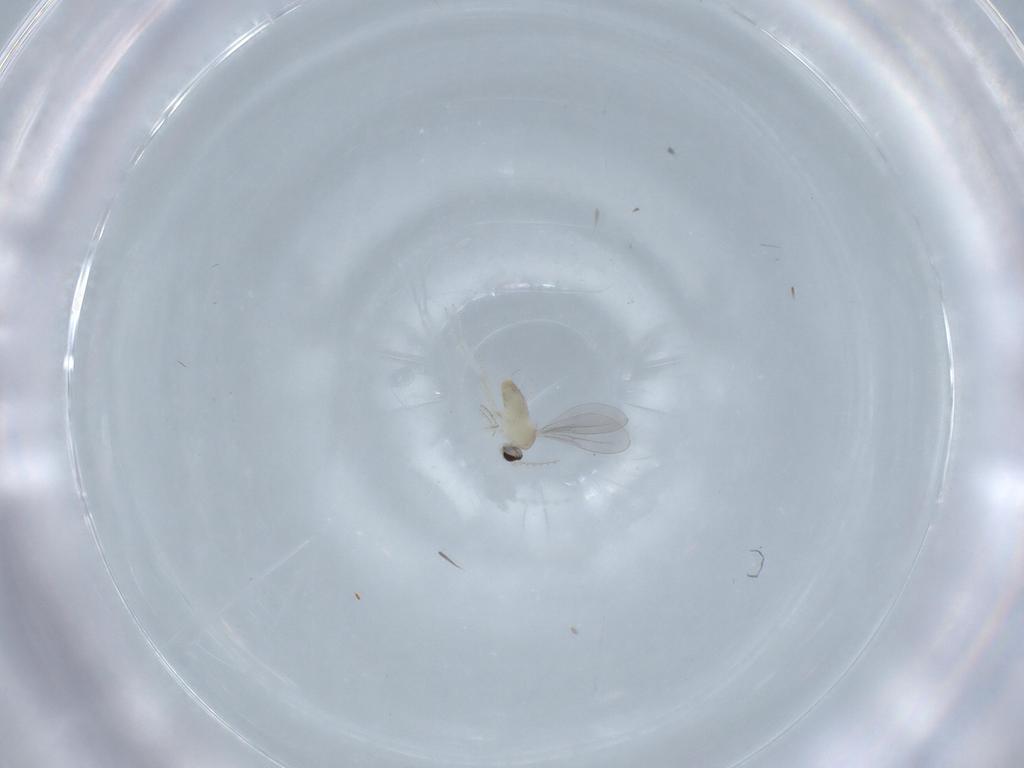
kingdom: Animalia
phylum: Arthropoda
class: Insecta
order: Diptera
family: Cecidomyiidae
